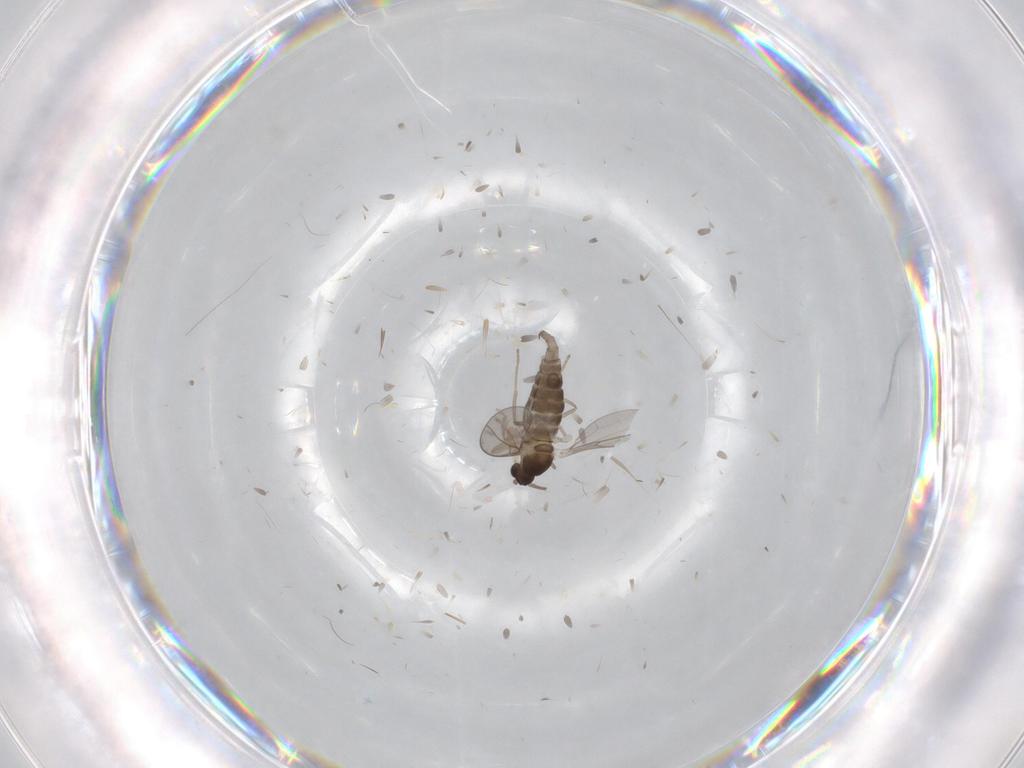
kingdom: Animalia
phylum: Arthropoda
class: Insecta
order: Diptera
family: Cecidomyiidae
